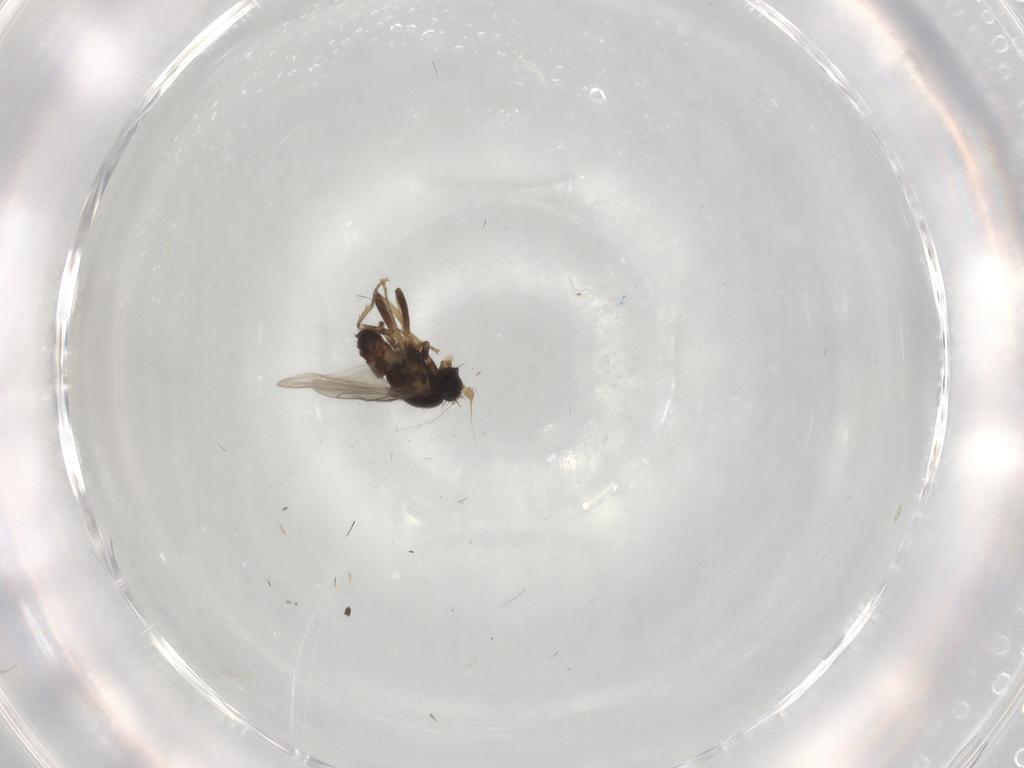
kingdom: Animalia
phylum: Arthropoda
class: Insecta
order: Diptera
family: Sphaeroceridae
